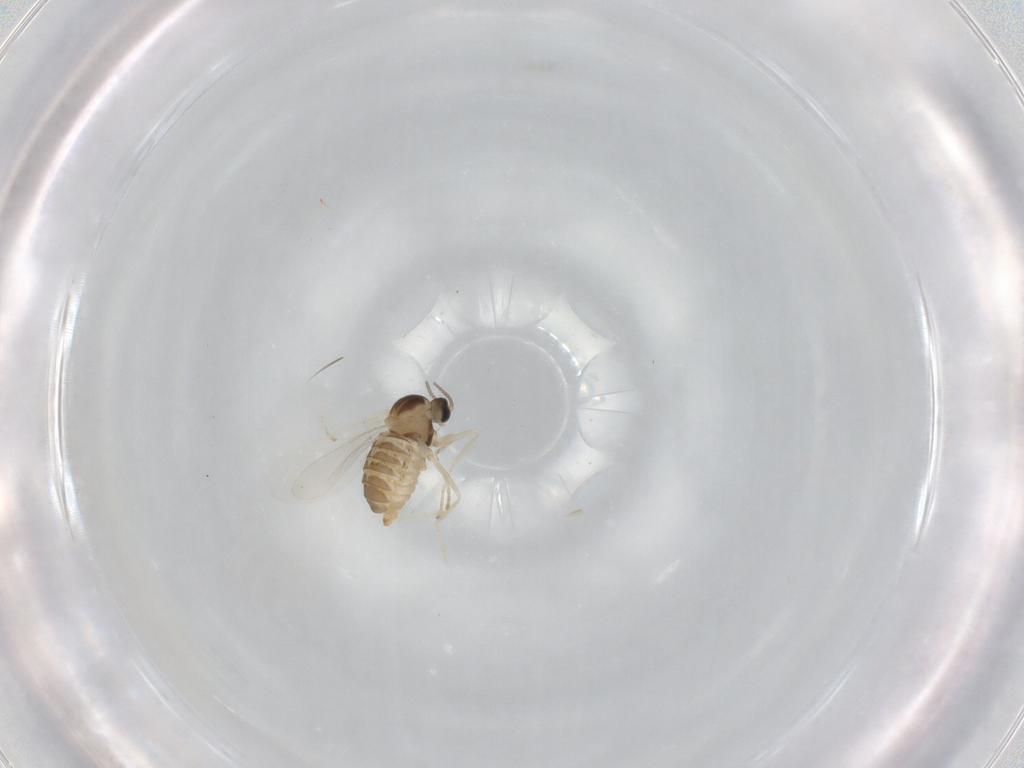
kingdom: Animalia
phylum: Arthropoda
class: Insecta
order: Diptera
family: Cecidomyiidae
